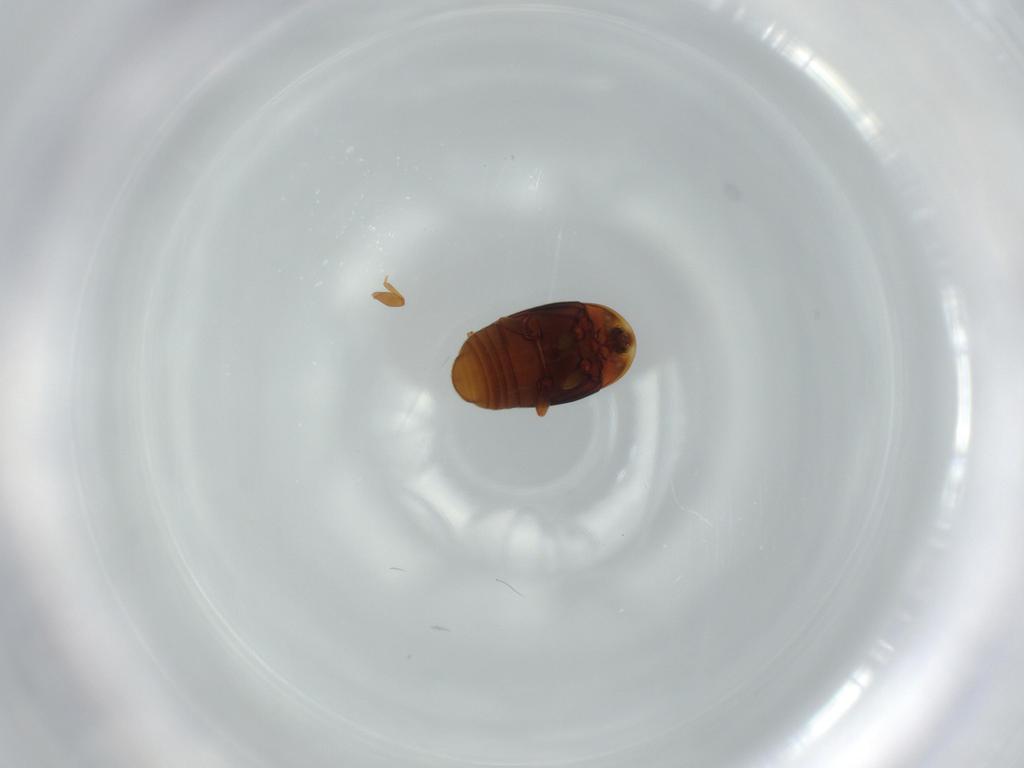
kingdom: Animalia
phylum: Arthropoda
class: Insecta
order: Coleoptera
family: Corylophidae
